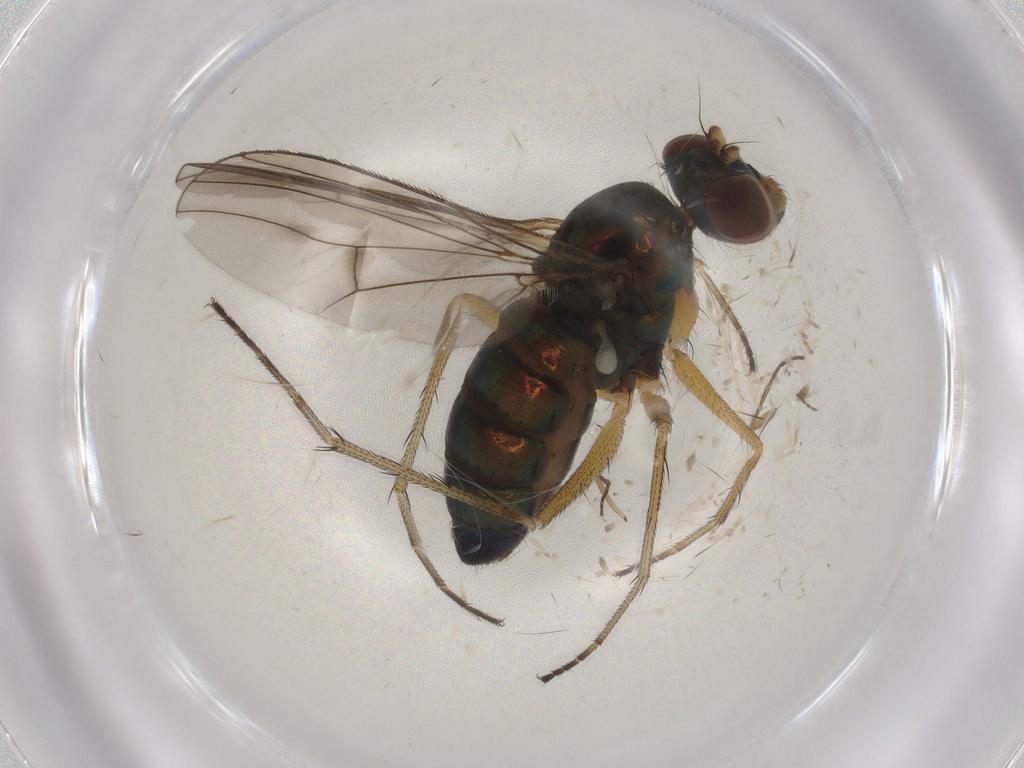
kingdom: Animalia
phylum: Arthropoda
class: Insecta
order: Diptera
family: Dolichopodidae
